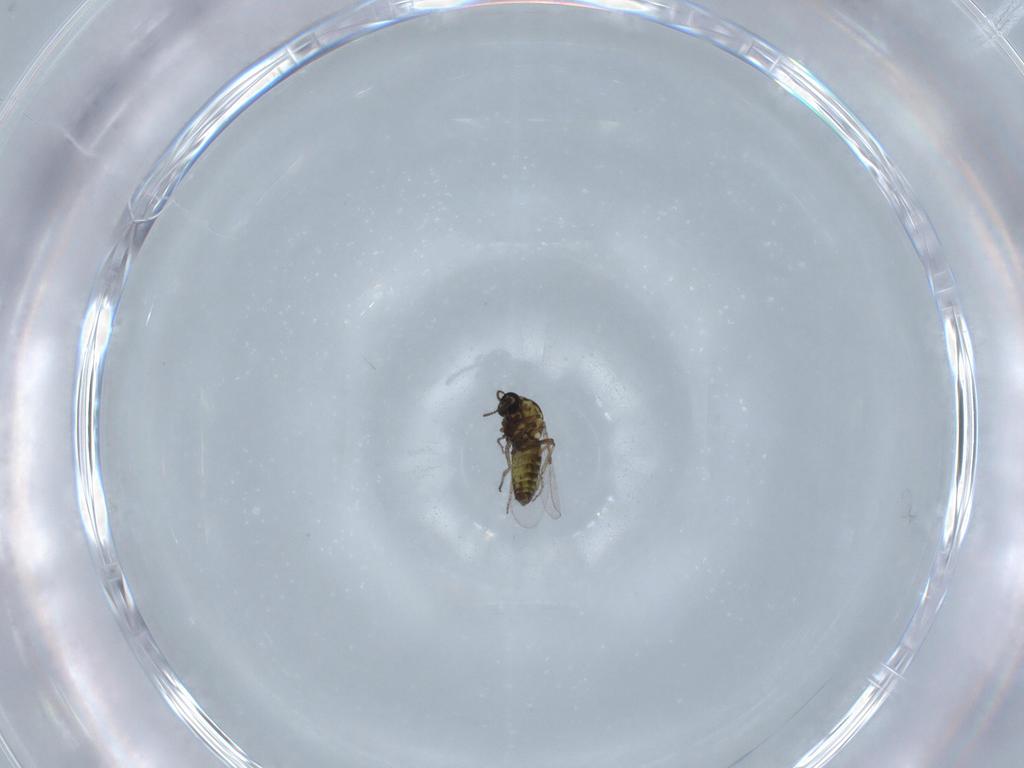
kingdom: Animalia
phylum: Arthropoda
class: Insecta
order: Diptera
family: Ceratopogonidae
